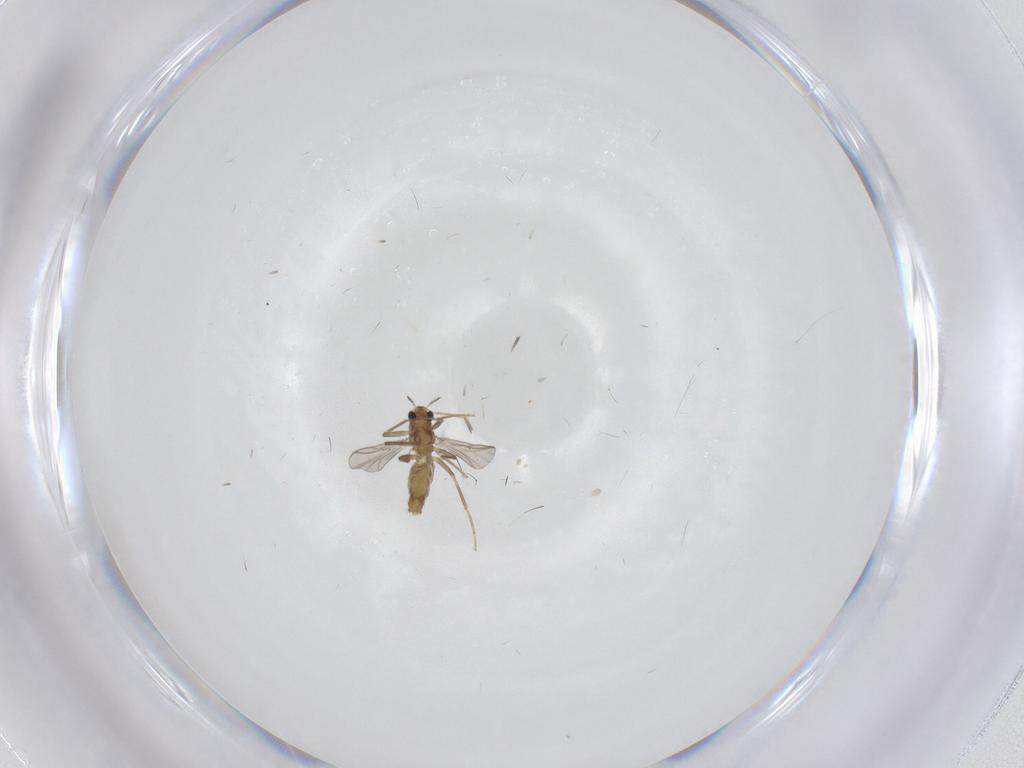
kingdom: Animalia
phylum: Arthropoda
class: Insecta
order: Diptera
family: Chironomidae
